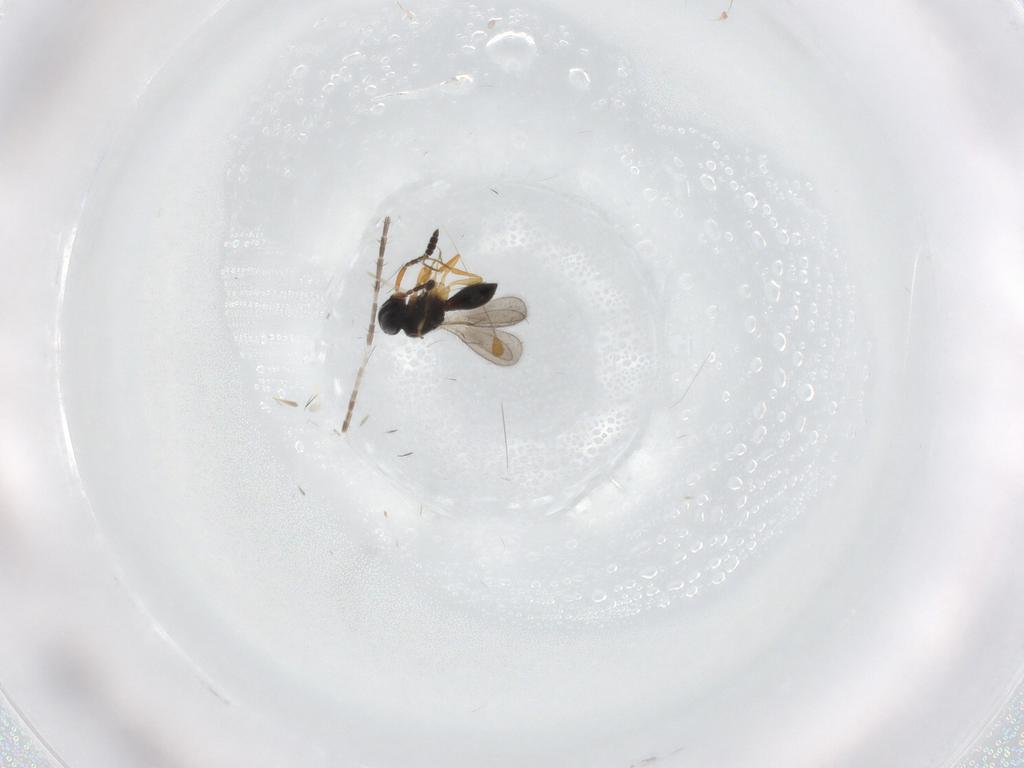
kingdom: Animalia
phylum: Arthropoda
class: Insecta
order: Hymenoptera
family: Scelionidae
